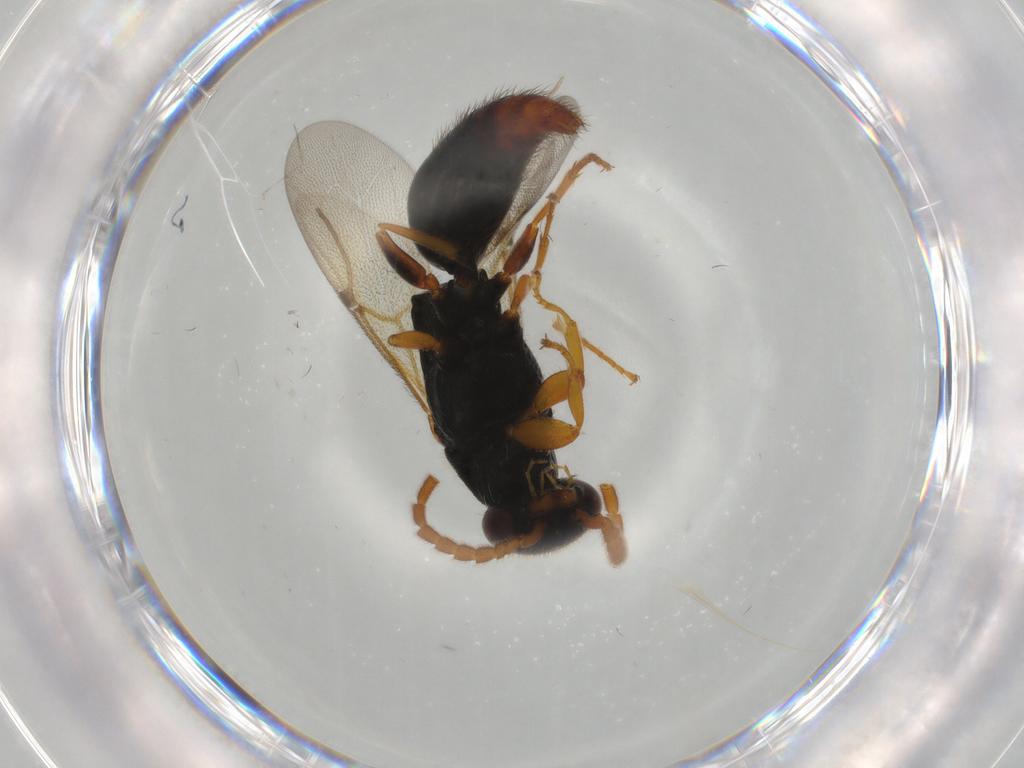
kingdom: Animalia
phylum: Arthropoda
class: Insecta
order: Hymenoptera
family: Bethylidae
